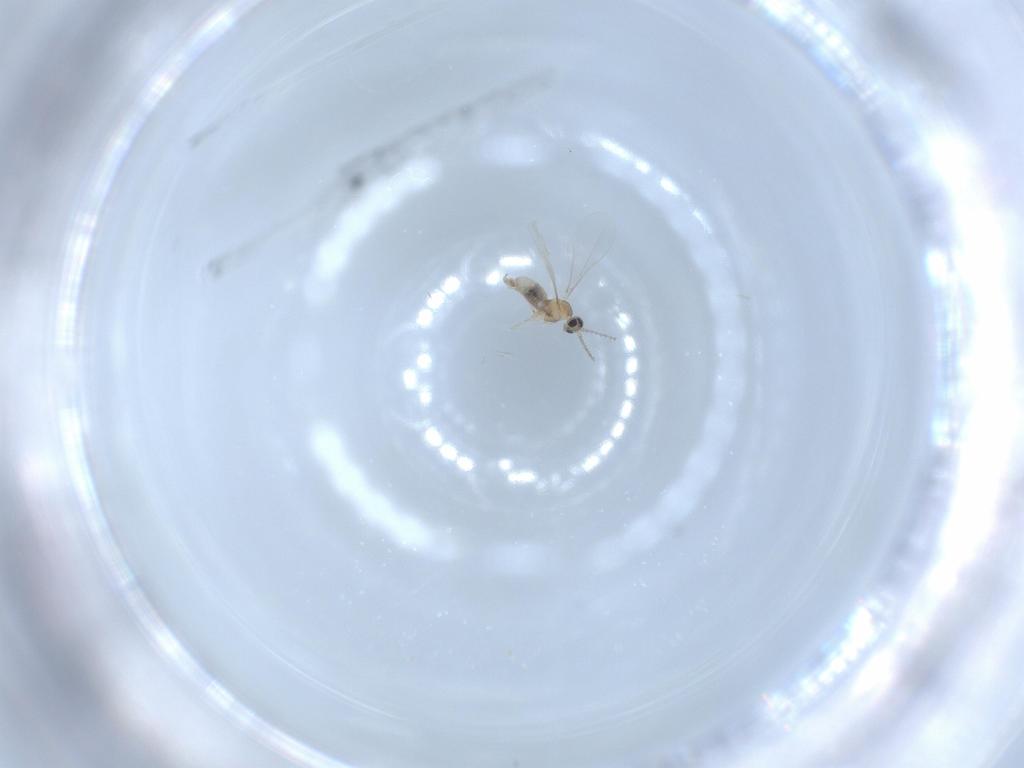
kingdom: Animalia
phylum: Arthropoda
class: Insecta
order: Diptera
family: Cecidomyiidae
